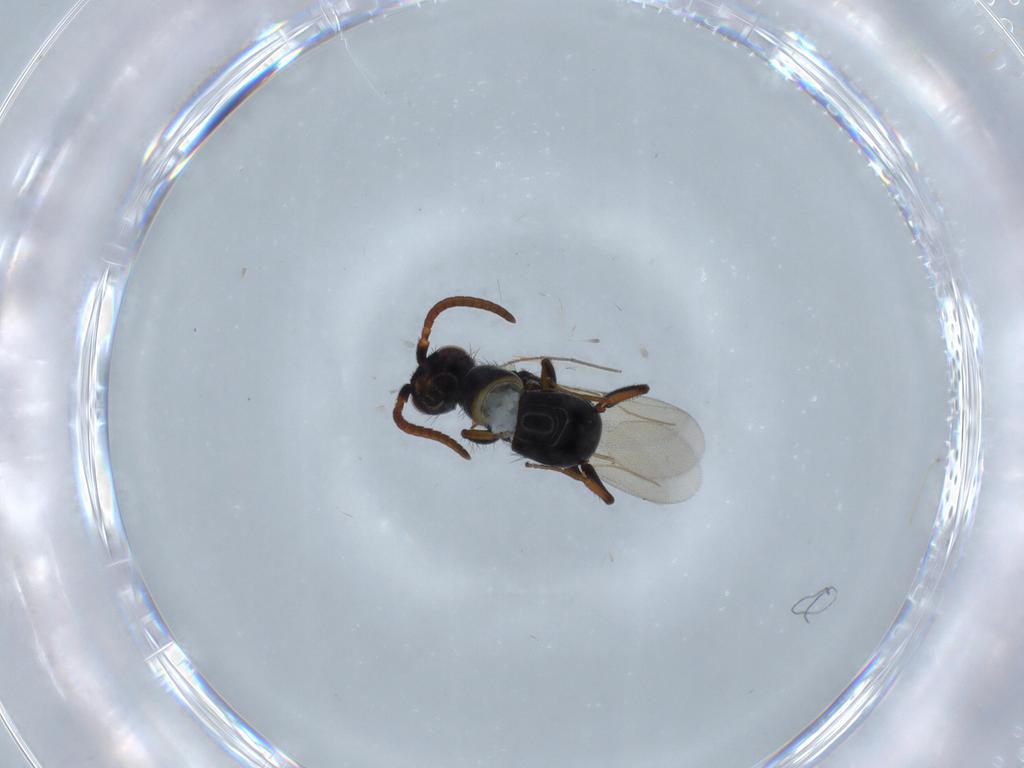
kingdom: Animalia
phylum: Arthropoda
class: Insecta
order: Hymenoptera
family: Bethylidae
